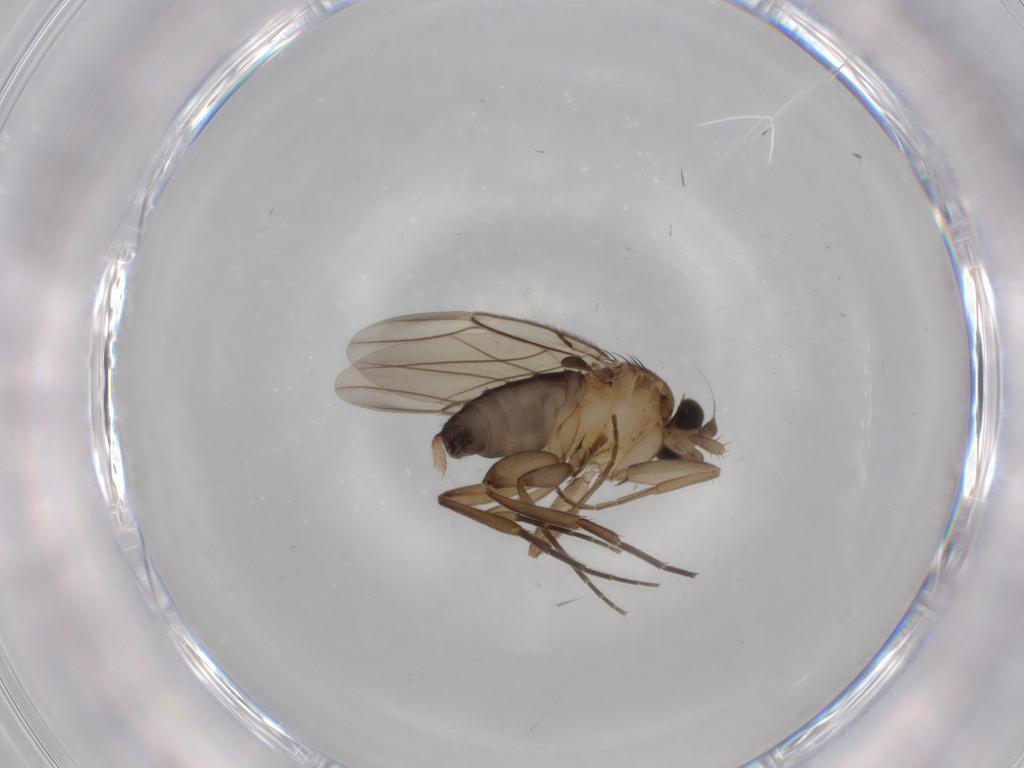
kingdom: Animalia
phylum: Arthropoda
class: Insecta
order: Diptera
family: Phoridae
